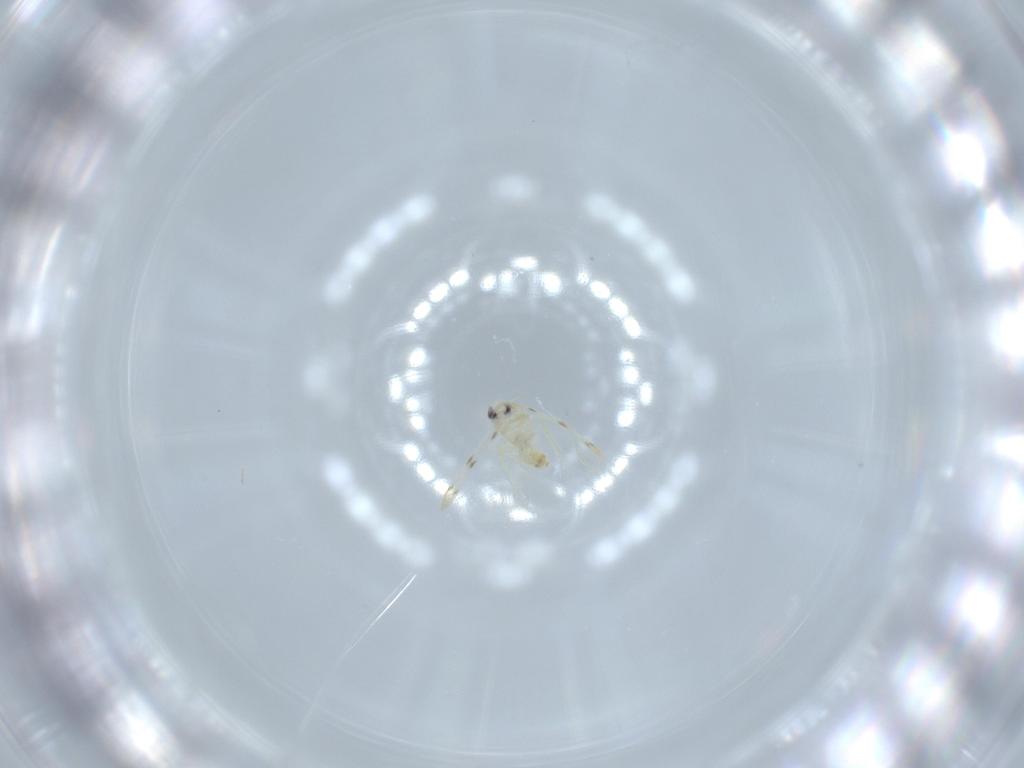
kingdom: Animalia
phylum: Arthropoda
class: Insecta
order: Hemiptera
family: Aleyrodidae
